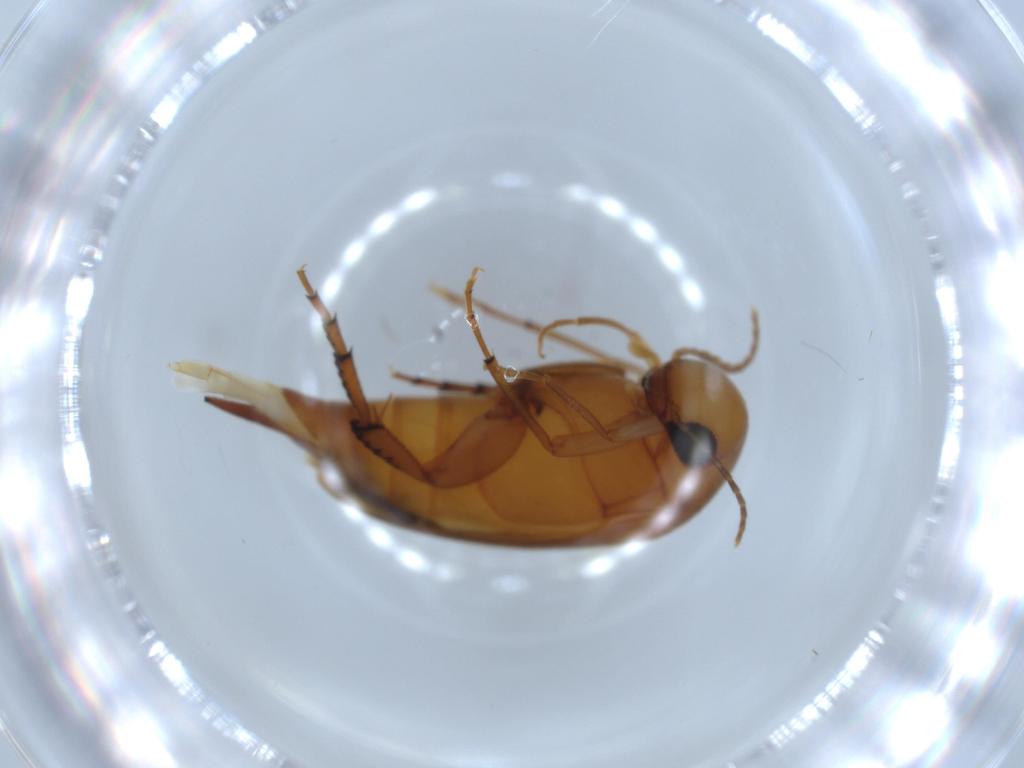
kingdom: Animalia
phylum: Arthropoda
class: Insecta
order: Coleoptera
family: Mordellidae
